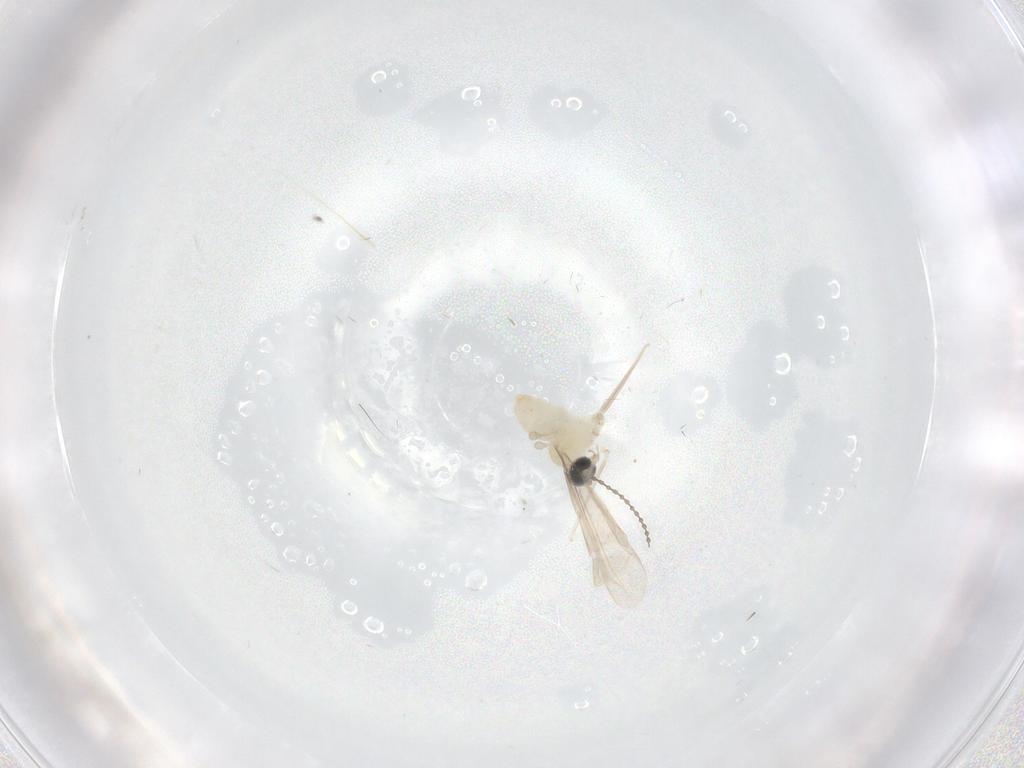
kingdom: Animalia
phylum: Arthropoda
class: Insecta
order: Diptera
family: Cecidomyiidae
